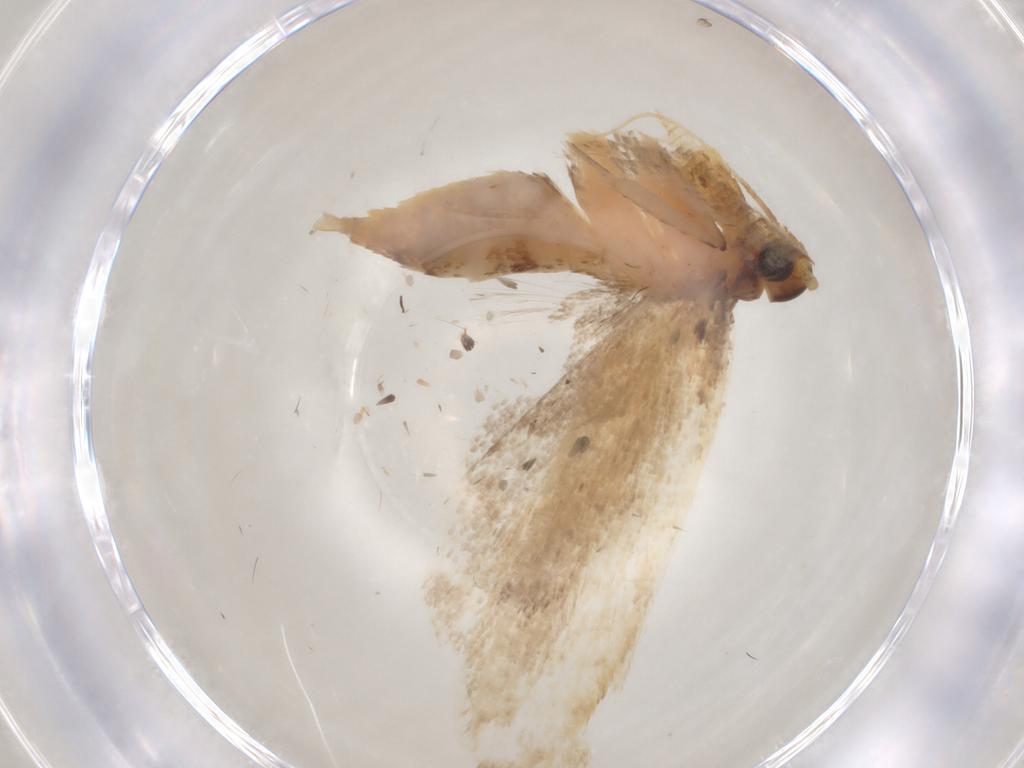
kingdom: Animalia
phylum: Arthropoda
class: Insecta
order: Lepidoptera
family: Lecithoceridae
